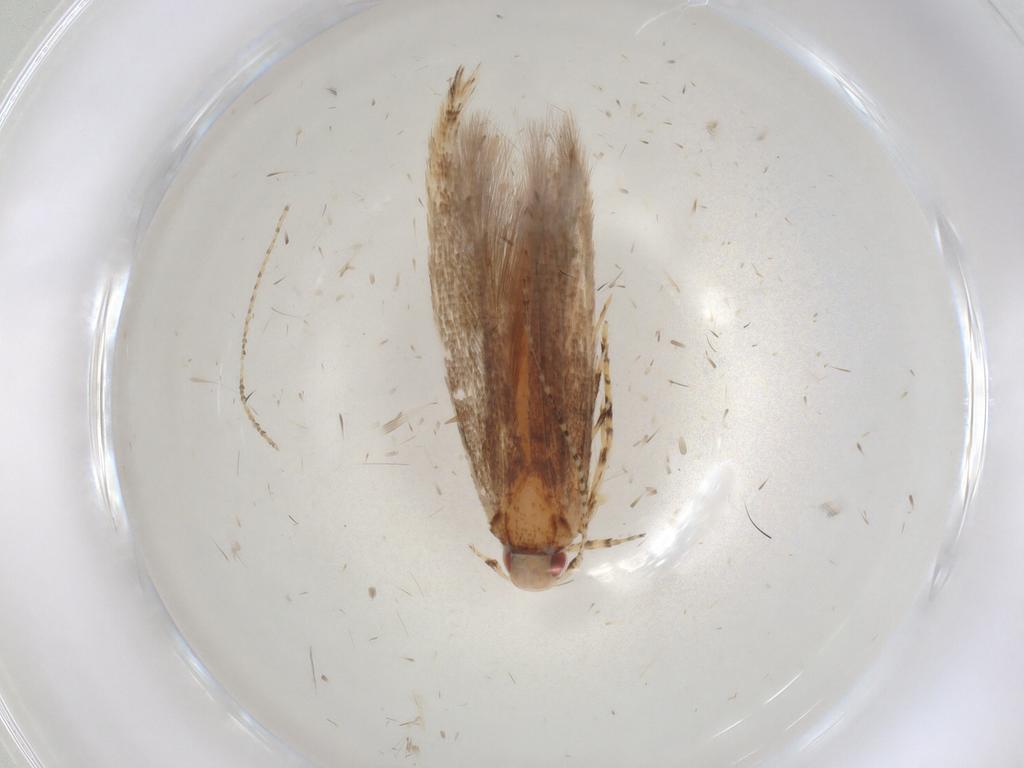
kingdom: Animalia
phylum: Arthropoda
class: Insecta
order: Lepidoptera
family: Cosmopterigidae
